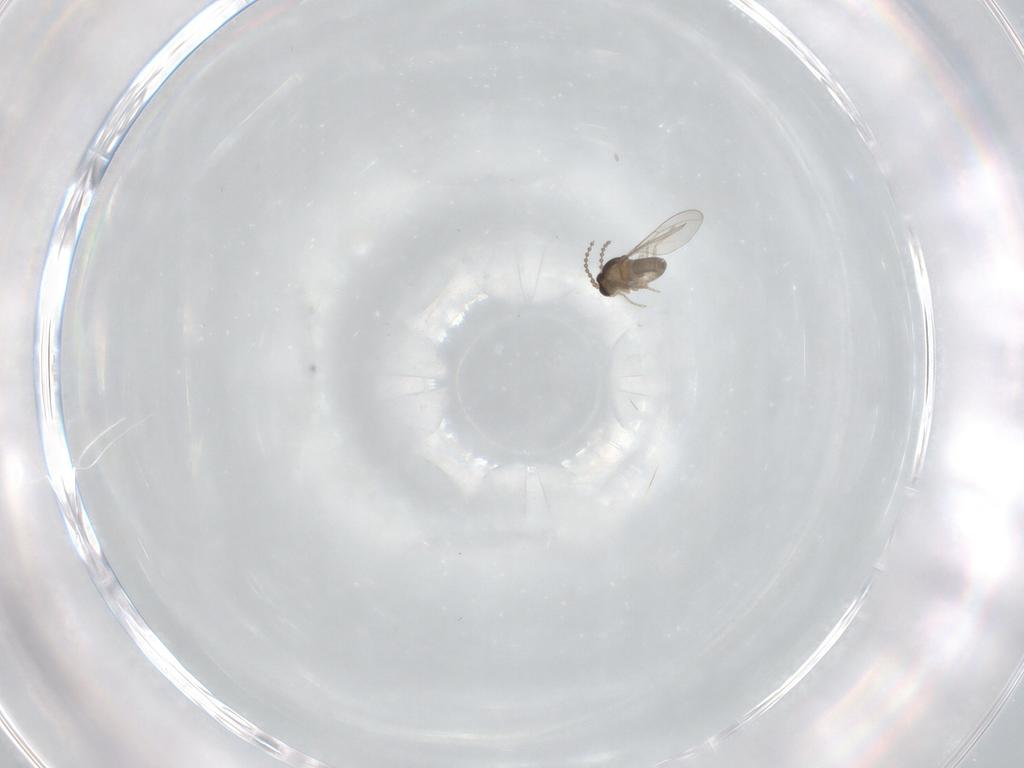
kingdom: Animalia
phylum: Arthropoda
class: Insecta
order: Diptera
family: Cecidomyiidae
